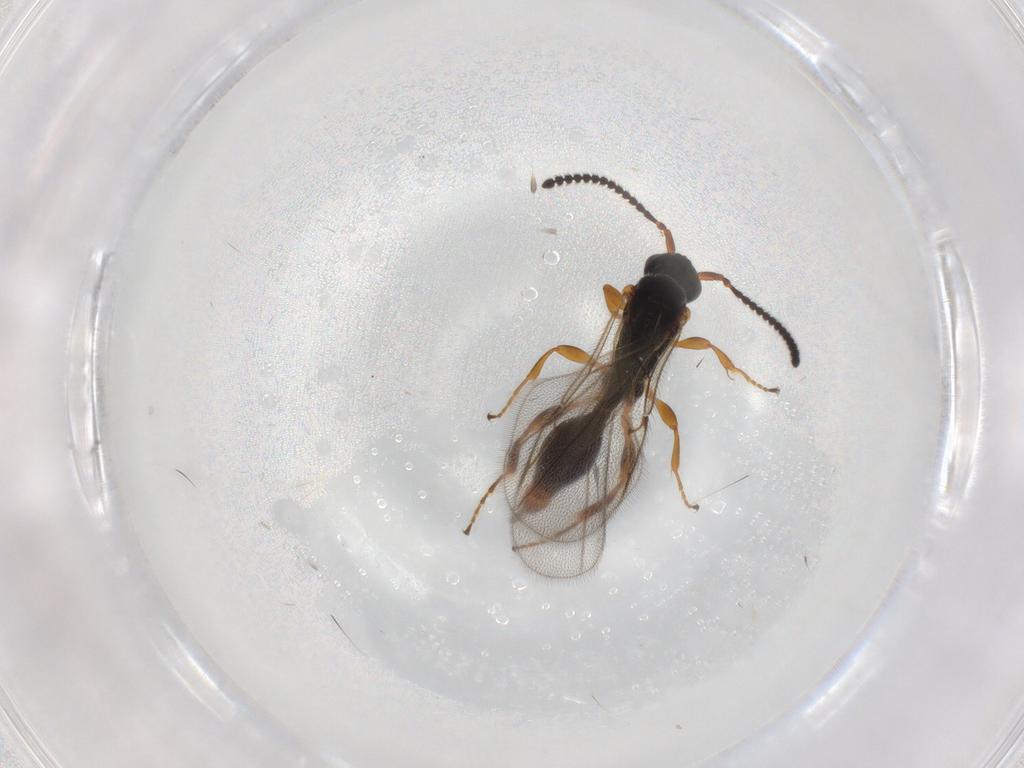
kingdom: Animalia
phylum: Arthropoda
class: Insecta
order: Hymenoptera
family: Diapriidae
